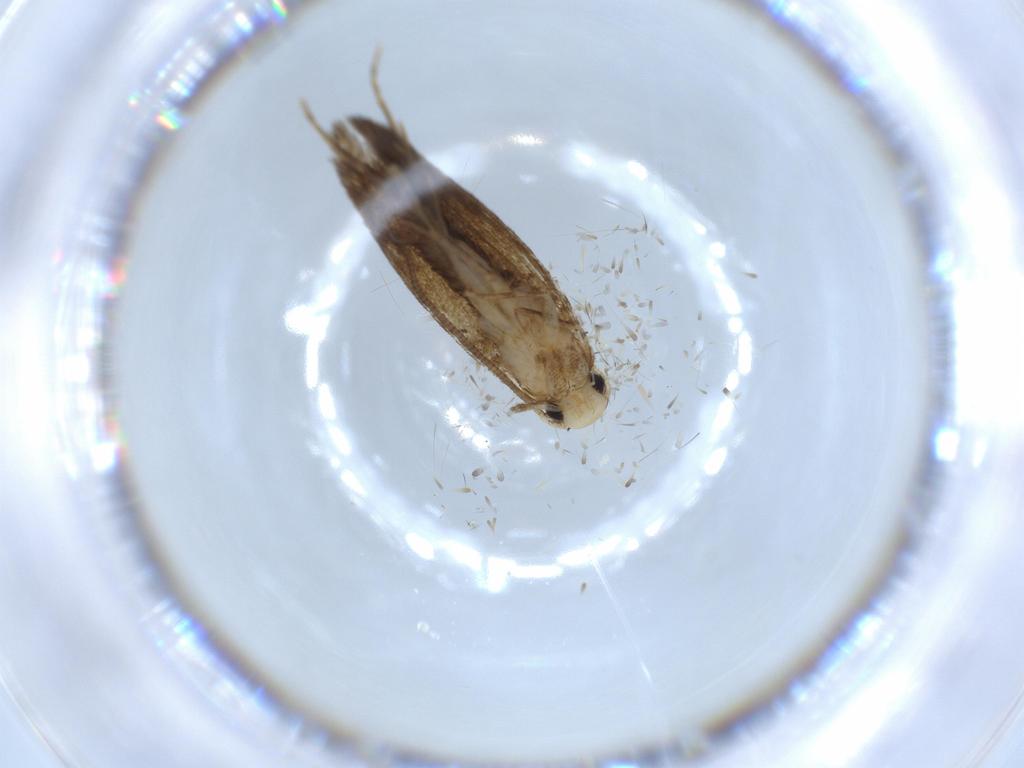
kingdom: Animalia
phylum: Arthropoda
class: Insecta
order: Lepidoptera
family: Tineidae
